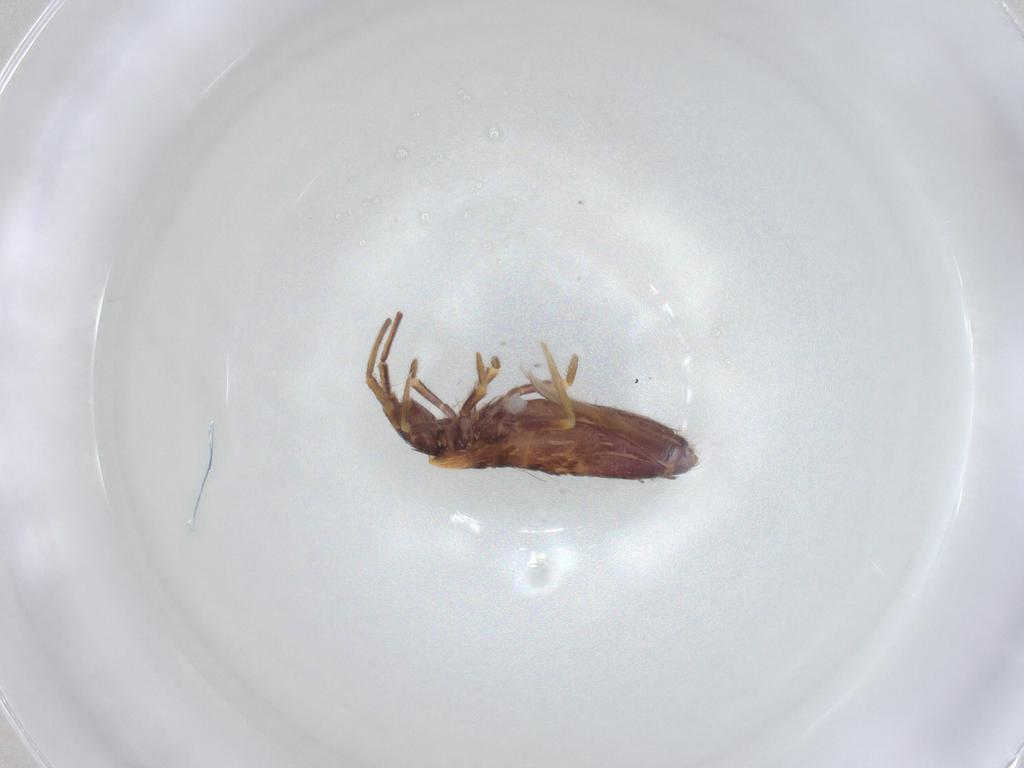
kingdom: Animalia
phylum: Arthropoda
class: Collembola
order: Entomobryomorpha
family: Entomobryidae
